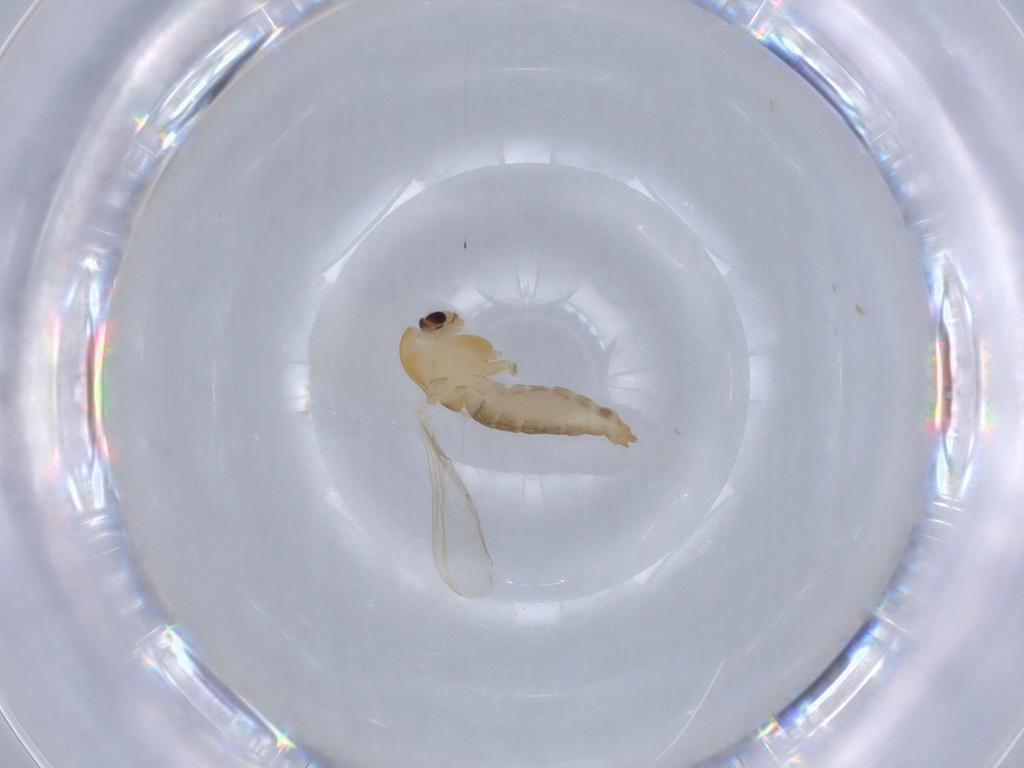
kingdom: Animalia
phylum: Arthropoda
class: Insecta
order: Diptera
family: Chironomidae
